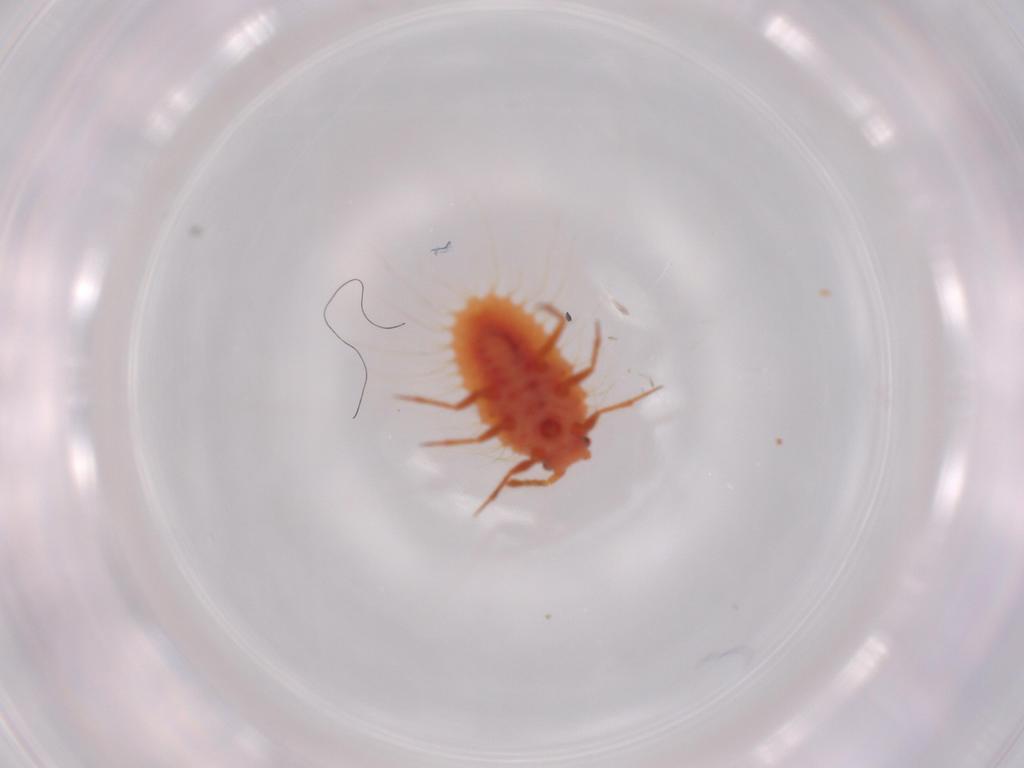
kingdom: Animalia
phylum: Arthropoda
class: Insecta
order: Hemiptera
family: Coccoidea_incertae_sedis
